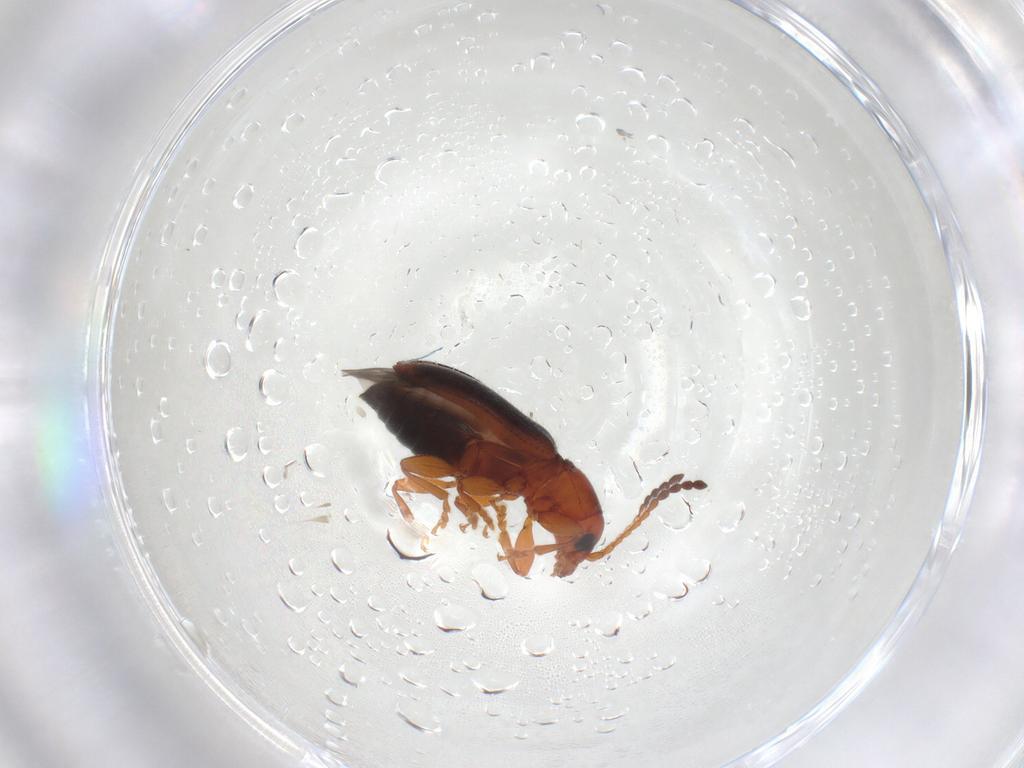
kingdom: Animalia
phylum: Arthropoda
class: Insecta
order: Coleoptera
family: Chrysomelidae
